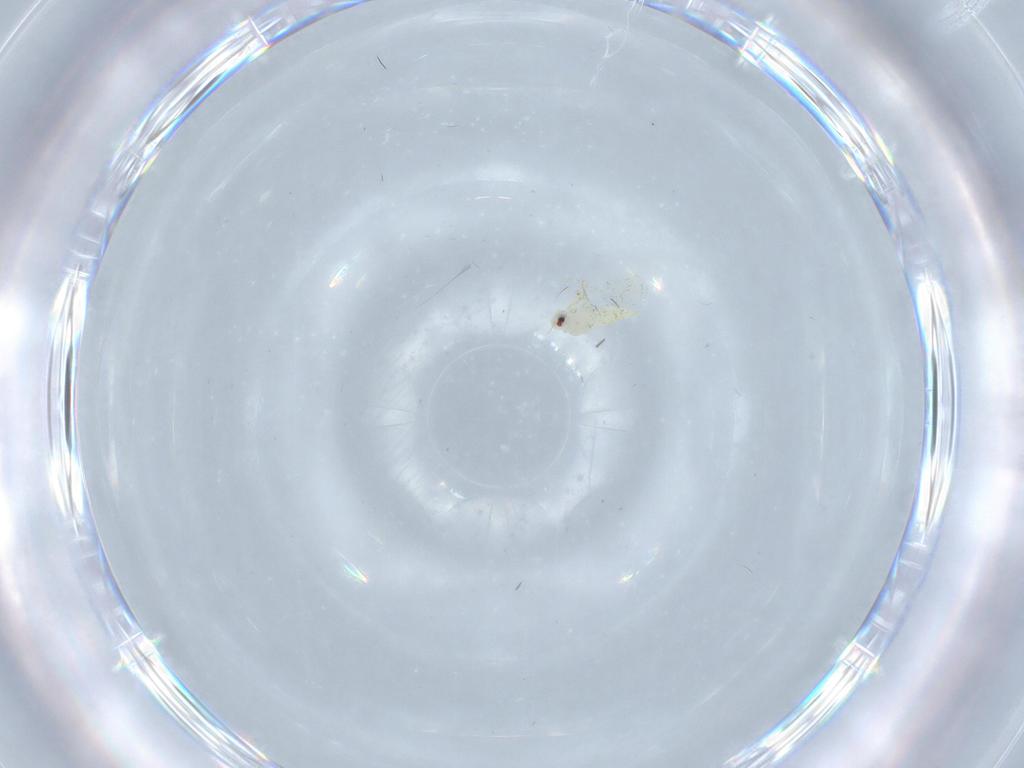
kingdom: Animalia
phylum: Arthropoda
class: Insecta
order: Hemiptera
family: Aleyrodidae
